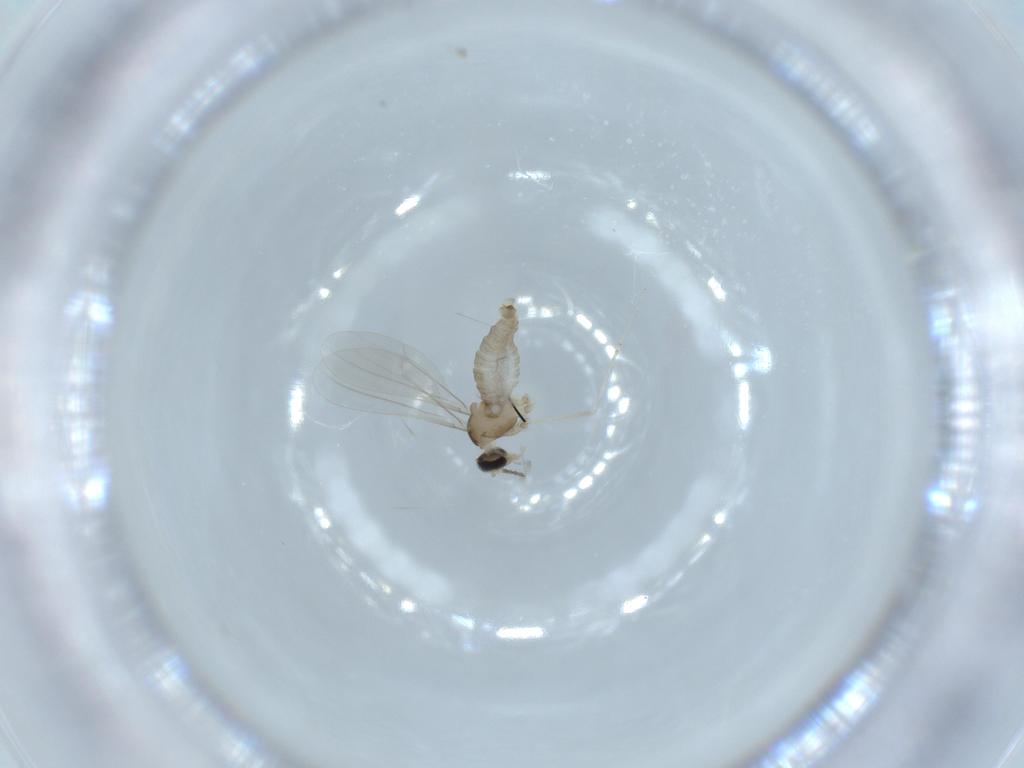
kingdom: Animalia
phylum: Arthropoda
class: Insecta
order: Diptera
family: Cecidomyiidae
